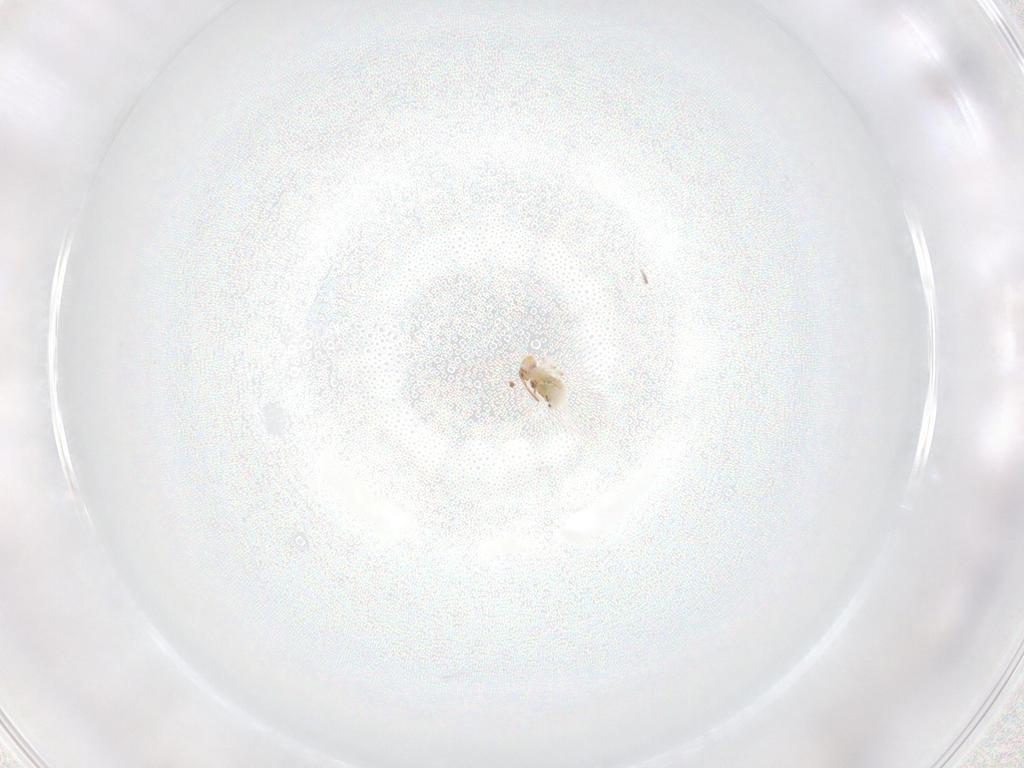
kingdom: Animalia
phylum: Arthropoda
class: Collembola
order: Symphypleona
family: Bourletiellidae
